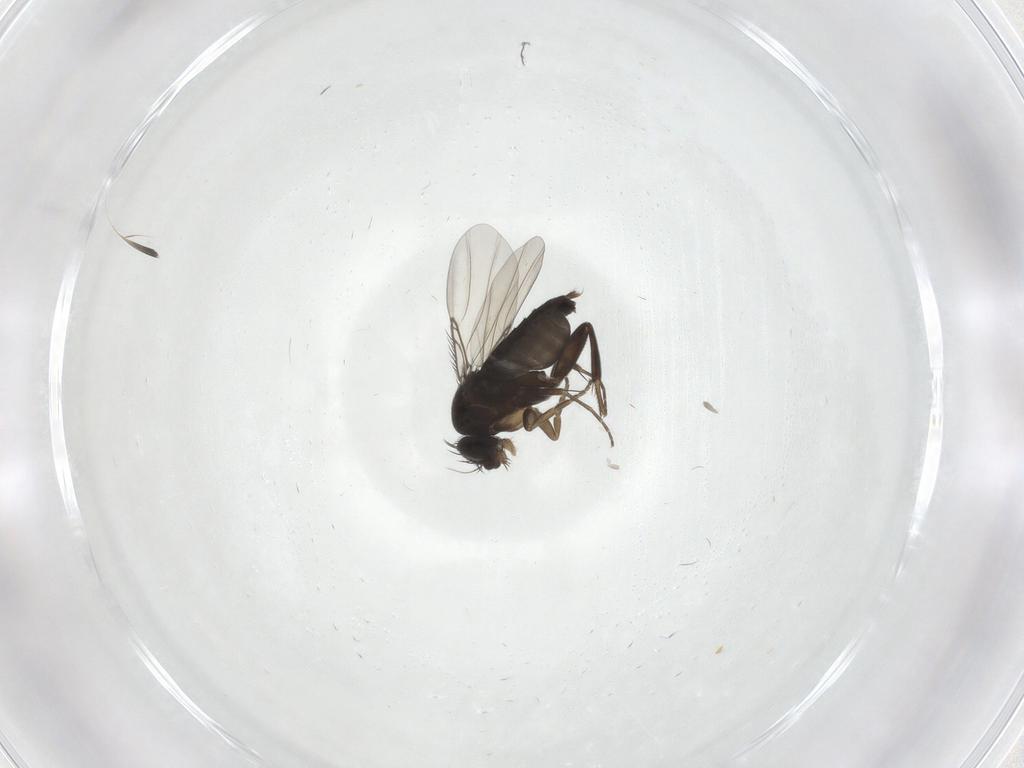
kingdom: Animalia
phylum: Arthropoda
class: Insecta
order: Diptera
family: Phoridae
